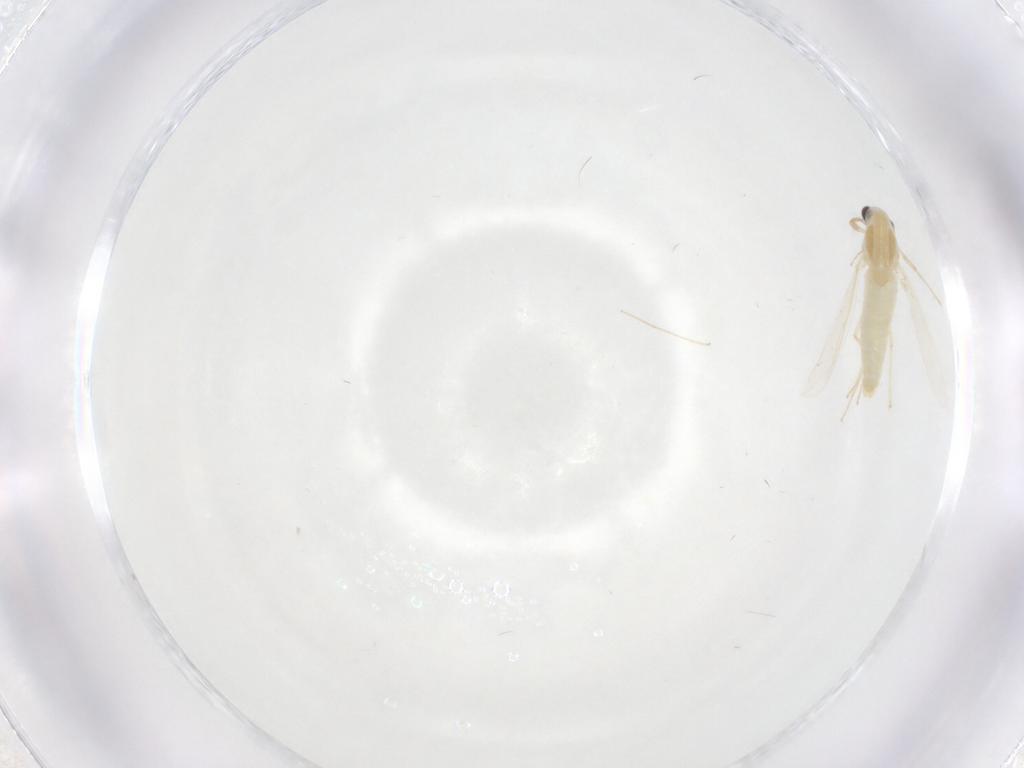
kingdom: Animalia
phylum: Arthropoda
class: Insecta
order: Diptera
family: Chironomidae
